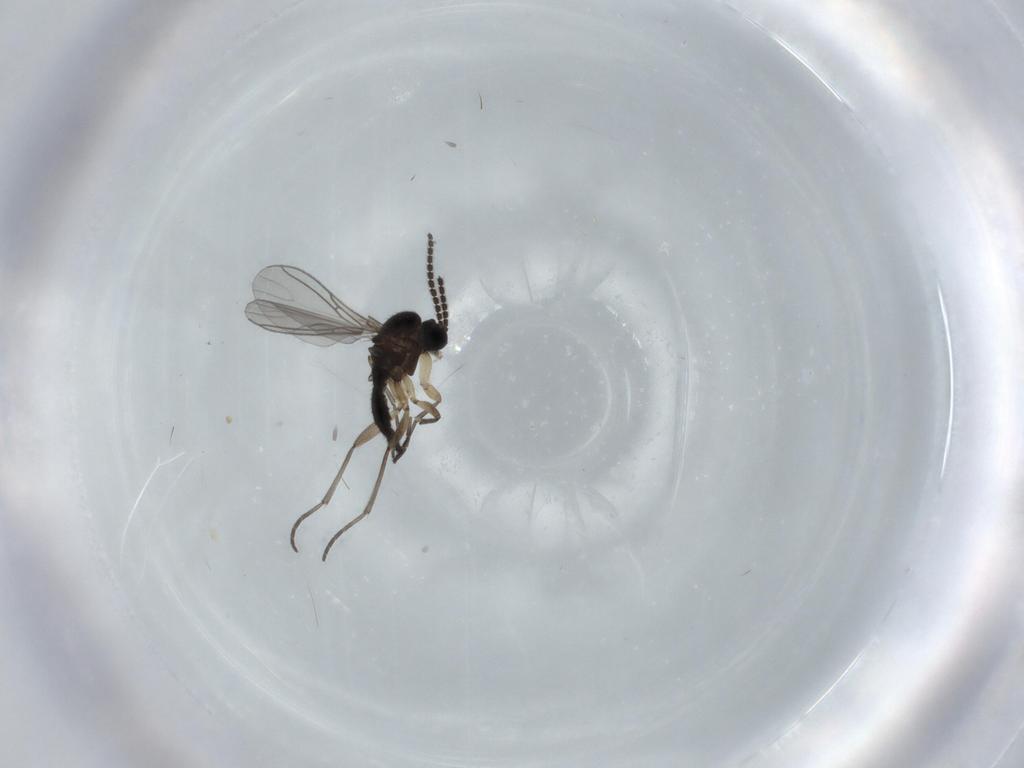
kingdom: Animalia
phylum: Arthropoda
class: Insecta
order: Diptera
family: Sciaridae
